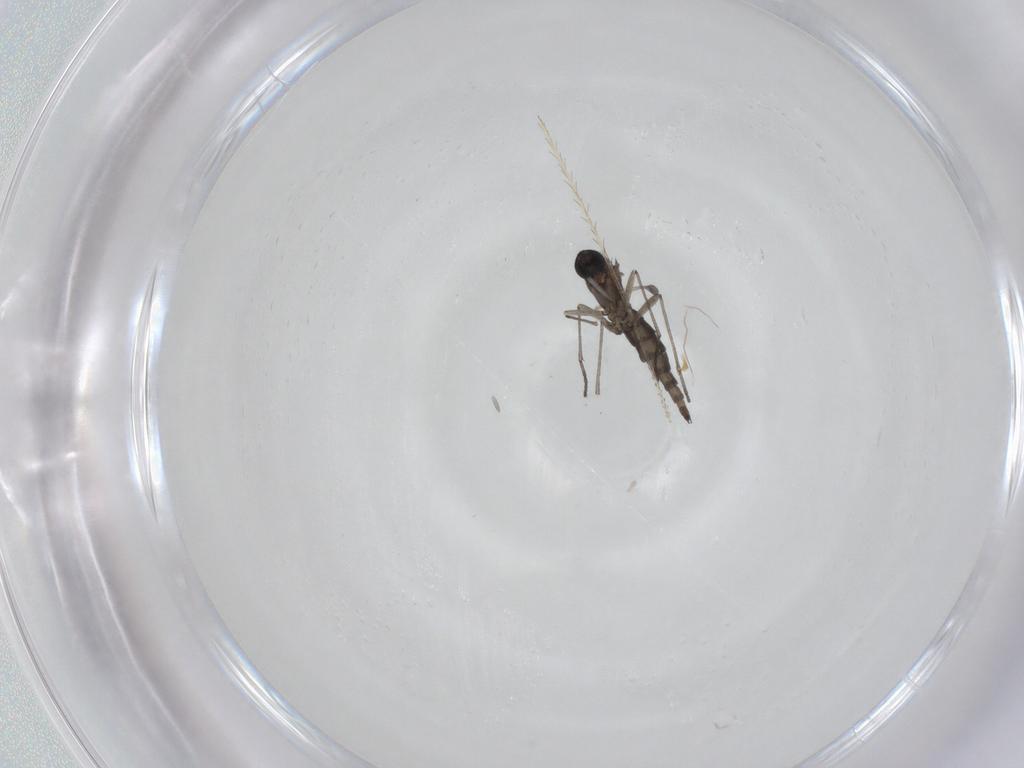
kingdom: Animalia
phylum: Arthropoda
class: Insecta
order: Diptera
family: Sciaridae
